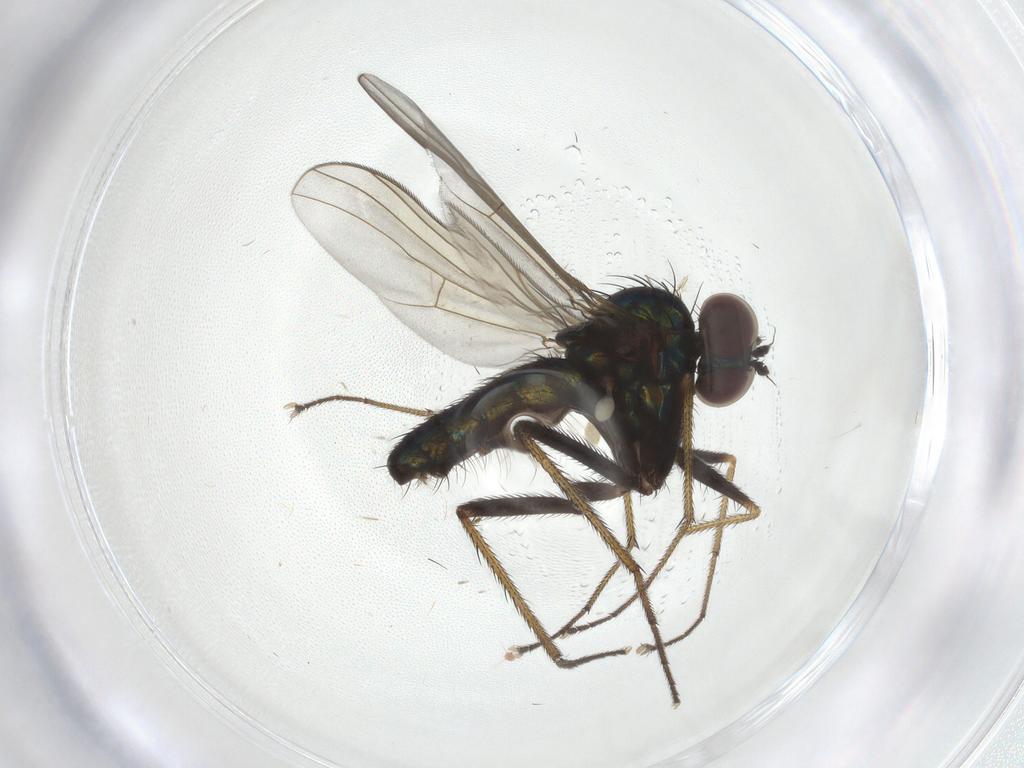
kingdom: Animalia
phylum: Arthropoda
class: Insecta
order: Diptera
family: Dolichopodidae
